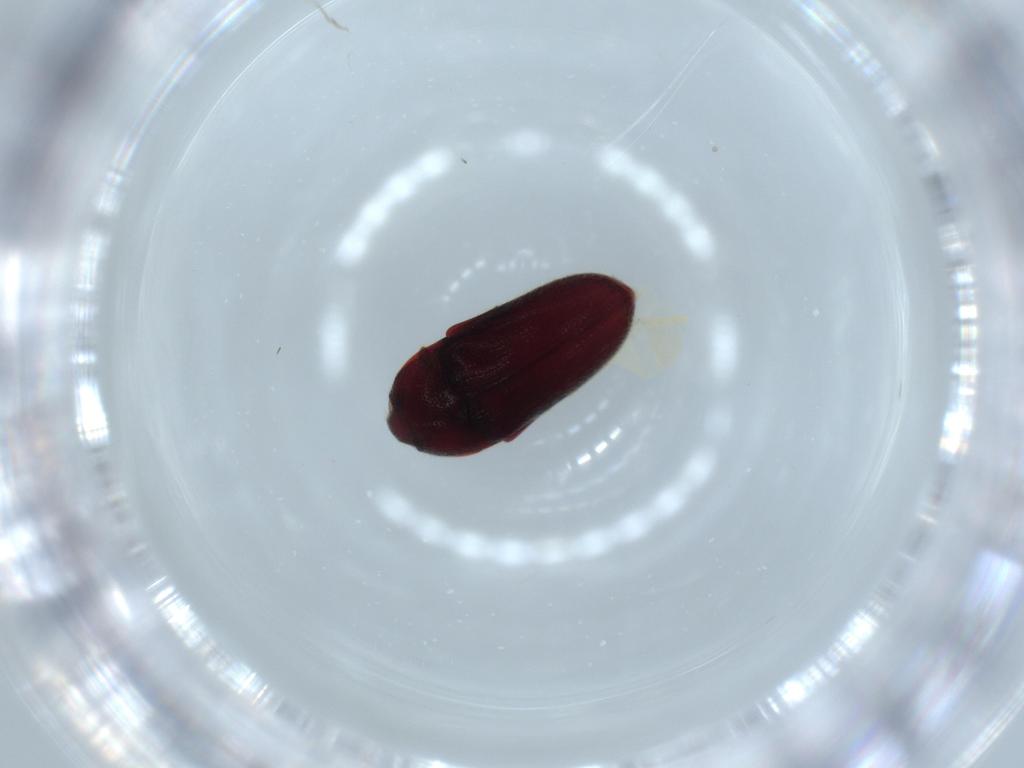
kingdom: Animalia
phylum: Arthropoda
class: Insecta
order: Coleoptera
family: Throscidae
